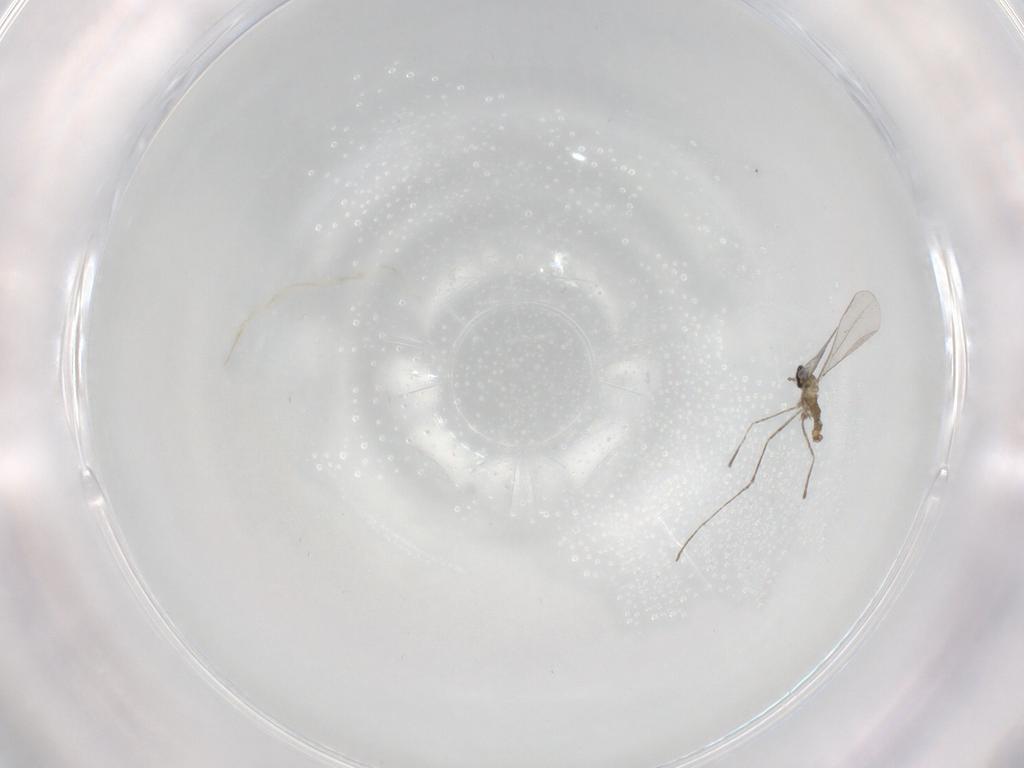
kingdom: Animalia
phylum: Arthropoda
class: Insecta
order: Diptera
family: Cecidomyiidae
